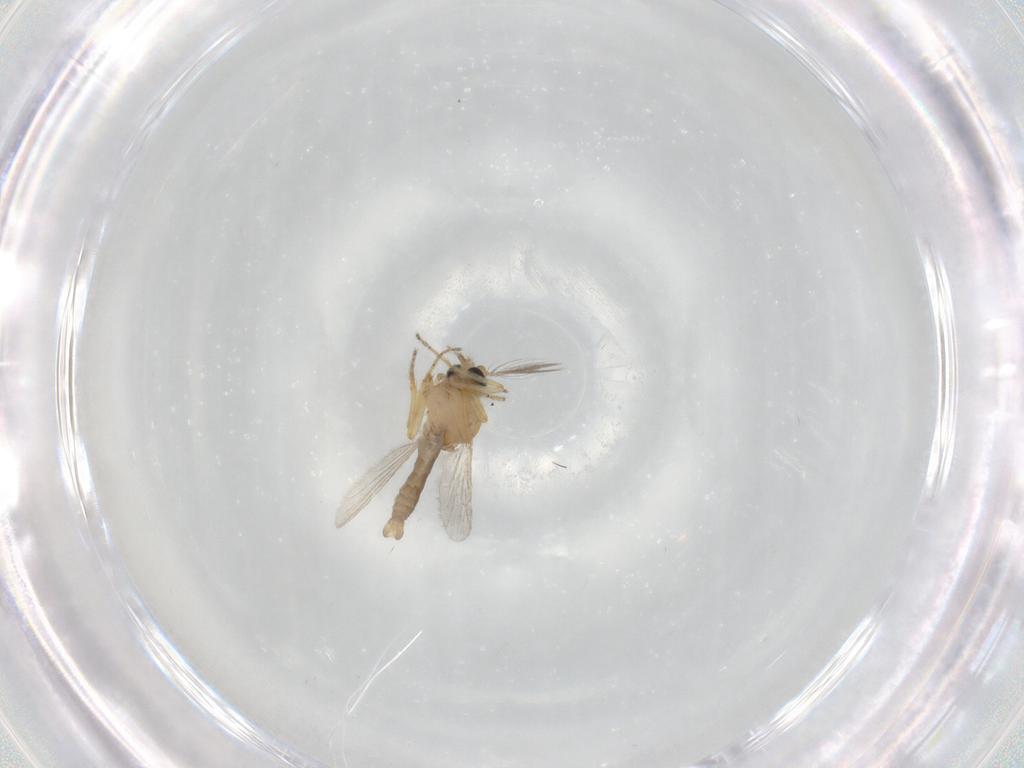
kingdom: Animalia
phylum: Arthropoda
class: Insecta
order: Diptera
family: Ceratopogonidae
